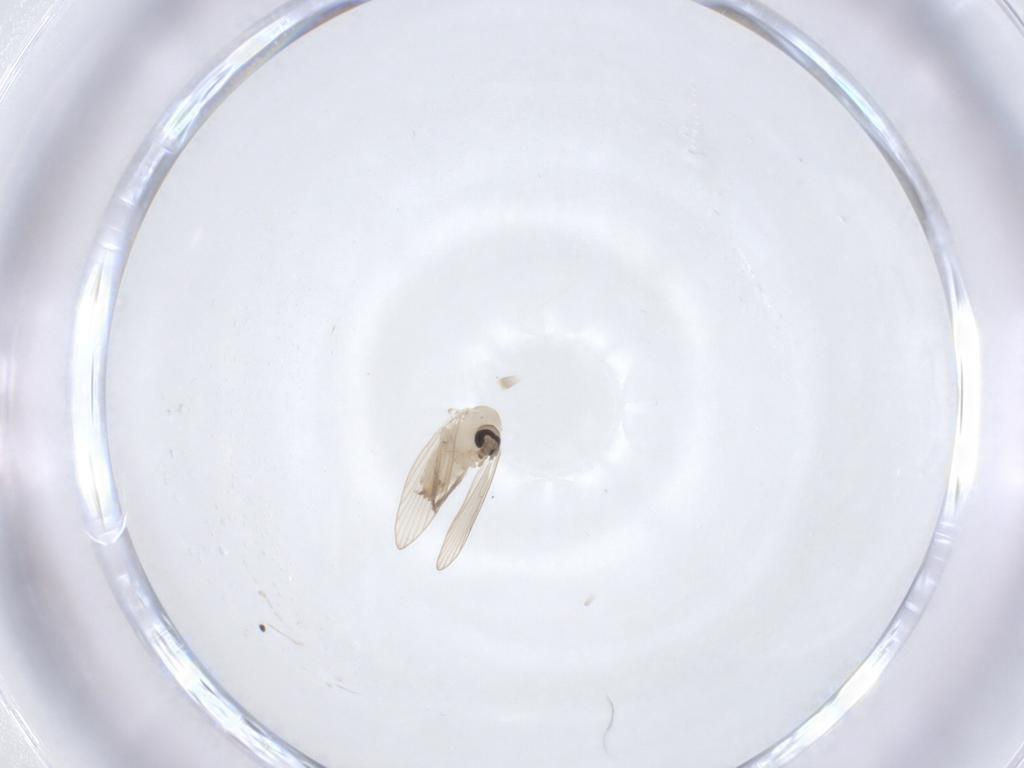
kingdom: Animalia
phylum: Arthropoda
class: Insecta
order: Diptera
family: Psychodidae
